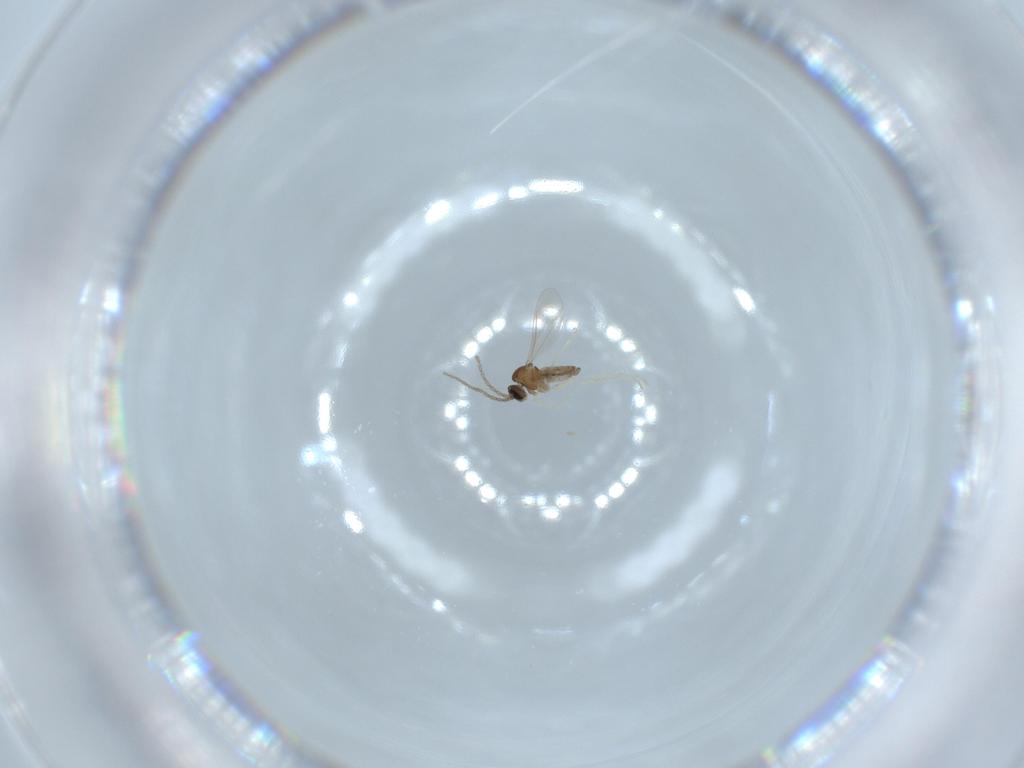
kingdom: Animalia
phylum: Arthropoda
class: Insecta
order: Diptera
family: Cecidomyiidae
